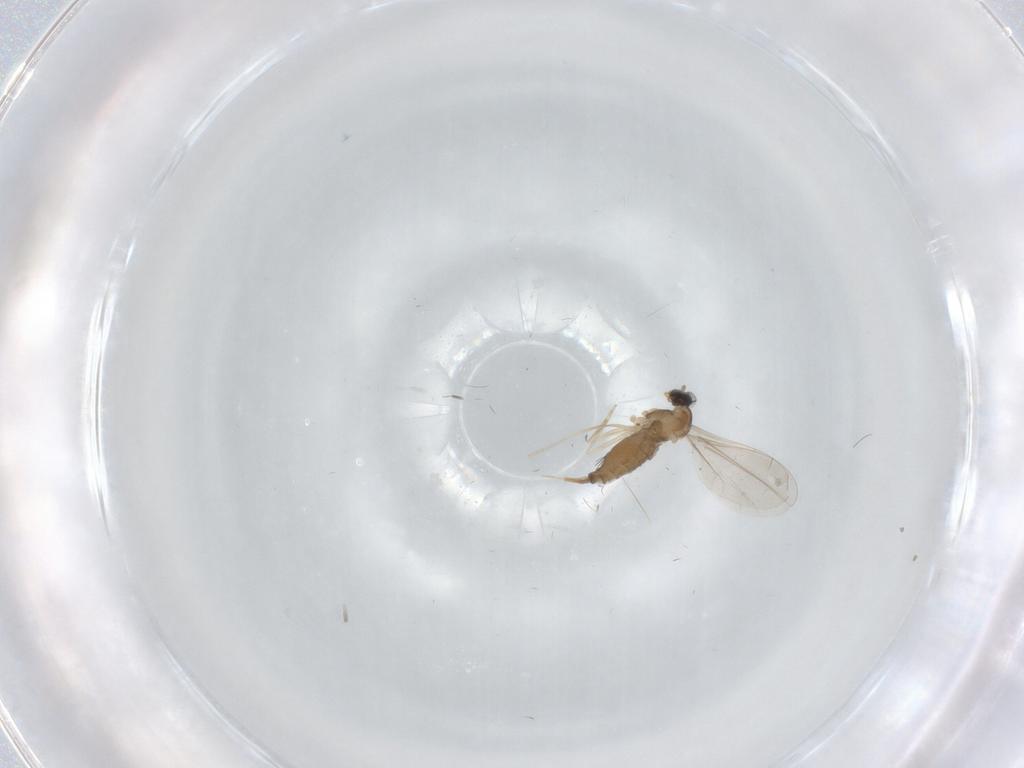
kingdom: Animalia
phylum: Arthropoda
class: Insecta
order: Diptera
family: Cecidomyiidae
